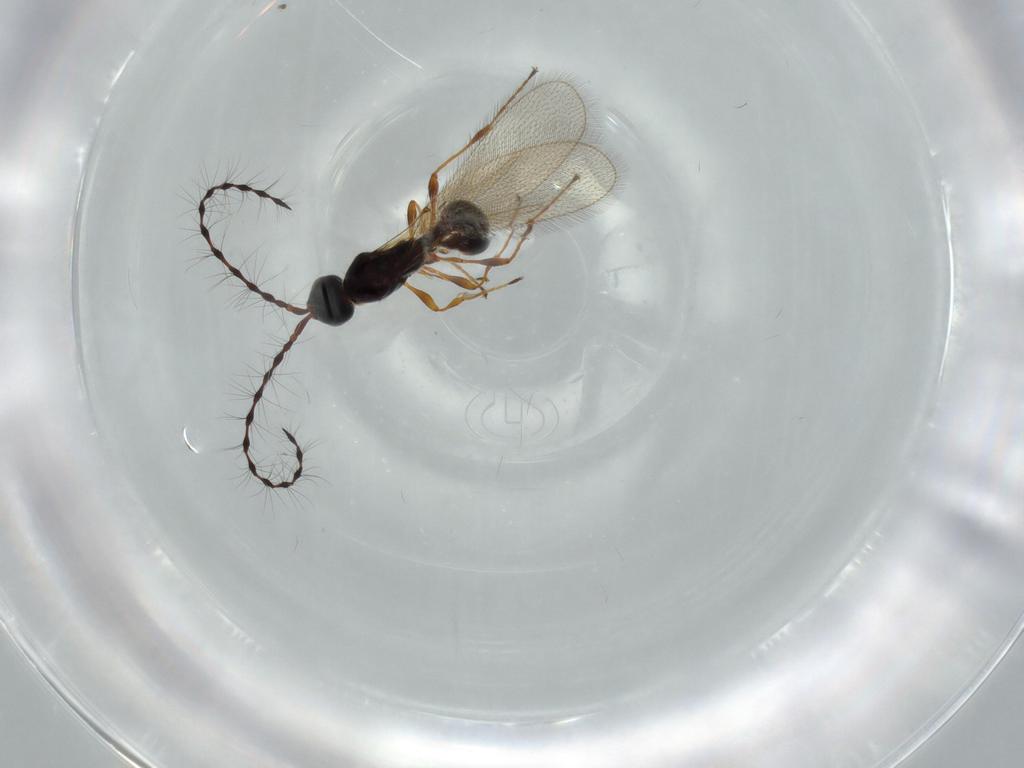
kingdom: Animalia
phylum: Arthropoda
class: Insecta
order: Hymenoptera
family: Diapriidae
